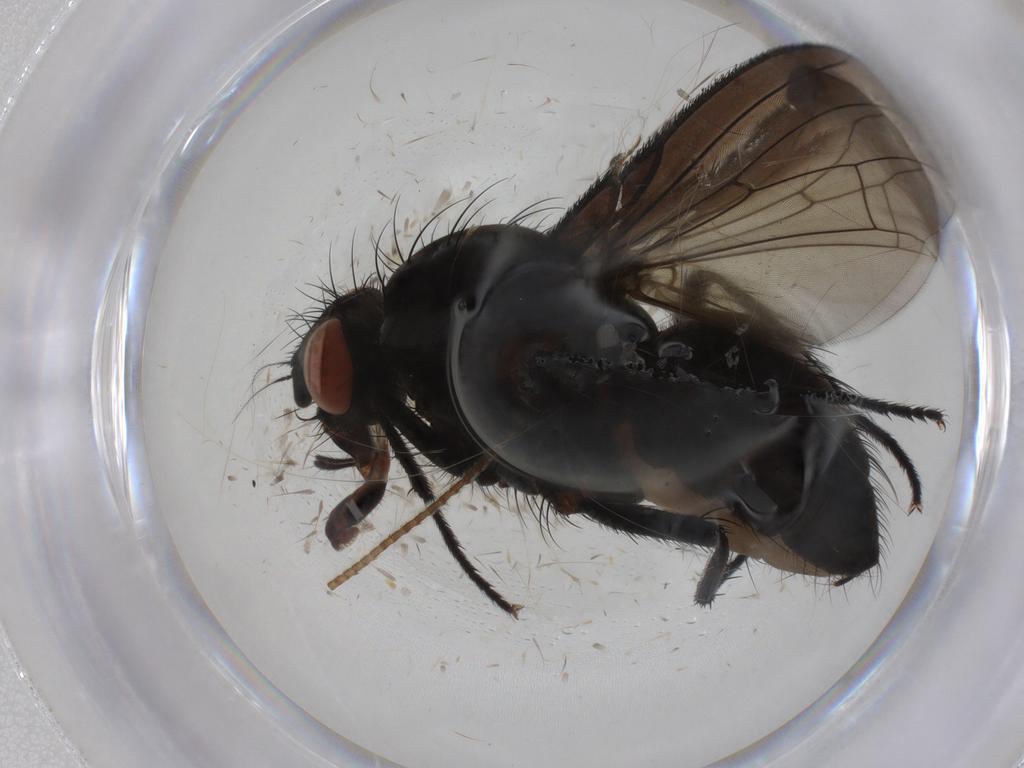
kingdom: Animalia
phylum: Arthropoda
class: Insecta
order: Diptera
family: Anthomyiidae
